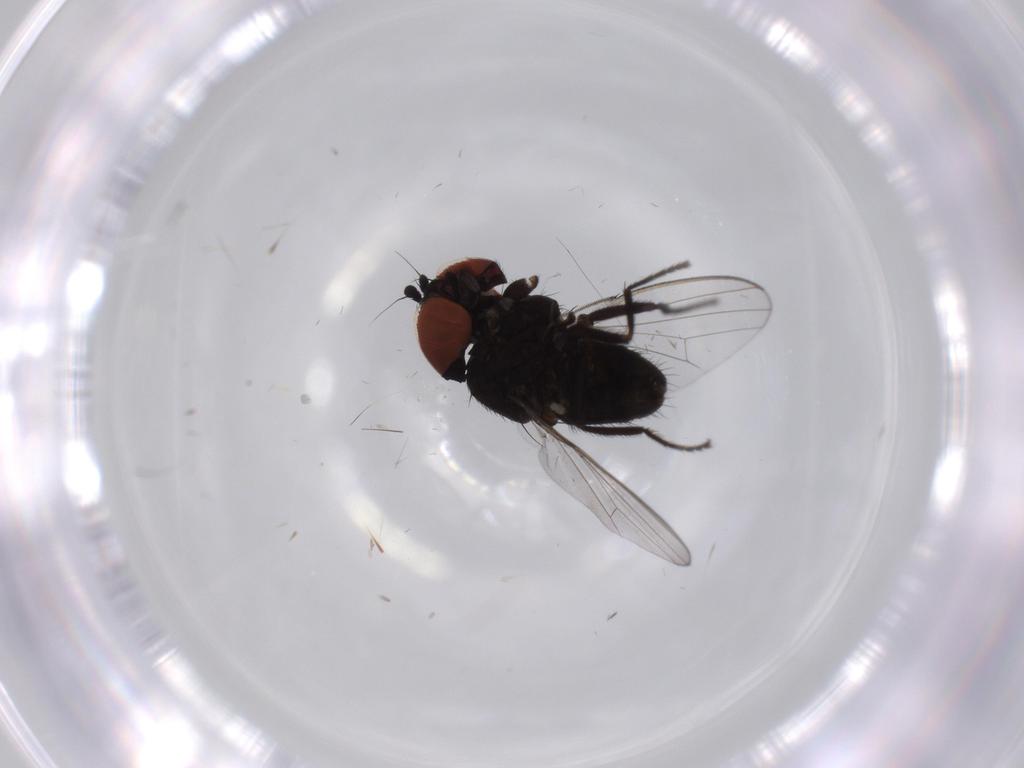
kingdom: Animalia
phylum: Arthropoda
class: Insecta
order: Diptera
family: Milichiidae
